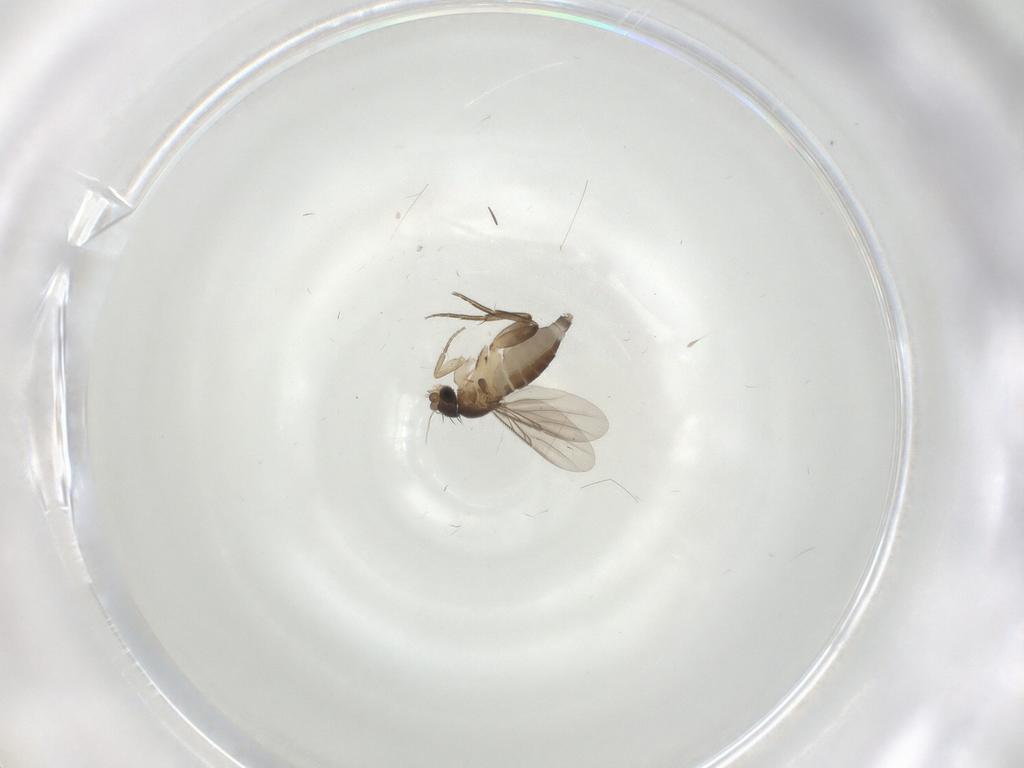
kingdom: Animalia
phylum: Arthropoda
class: Insecta
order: Diptera
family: Phoridae
